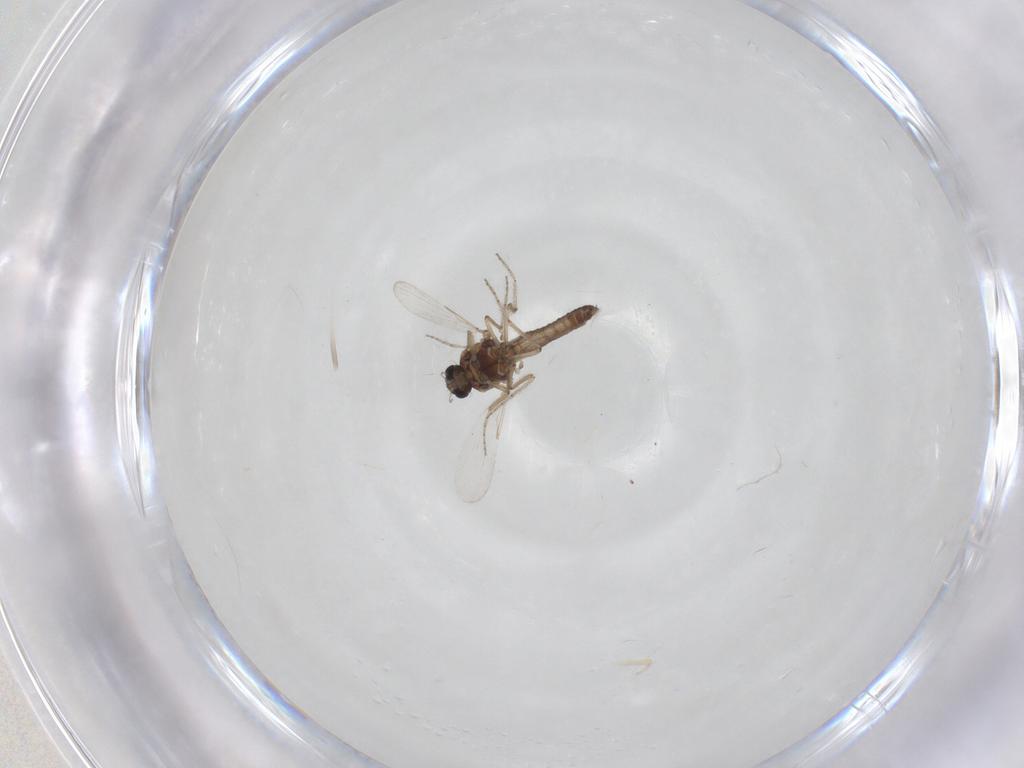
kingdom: Animalia
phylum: Arthropoda
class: Insecta
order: Diptera
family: Ceratopogonidae
